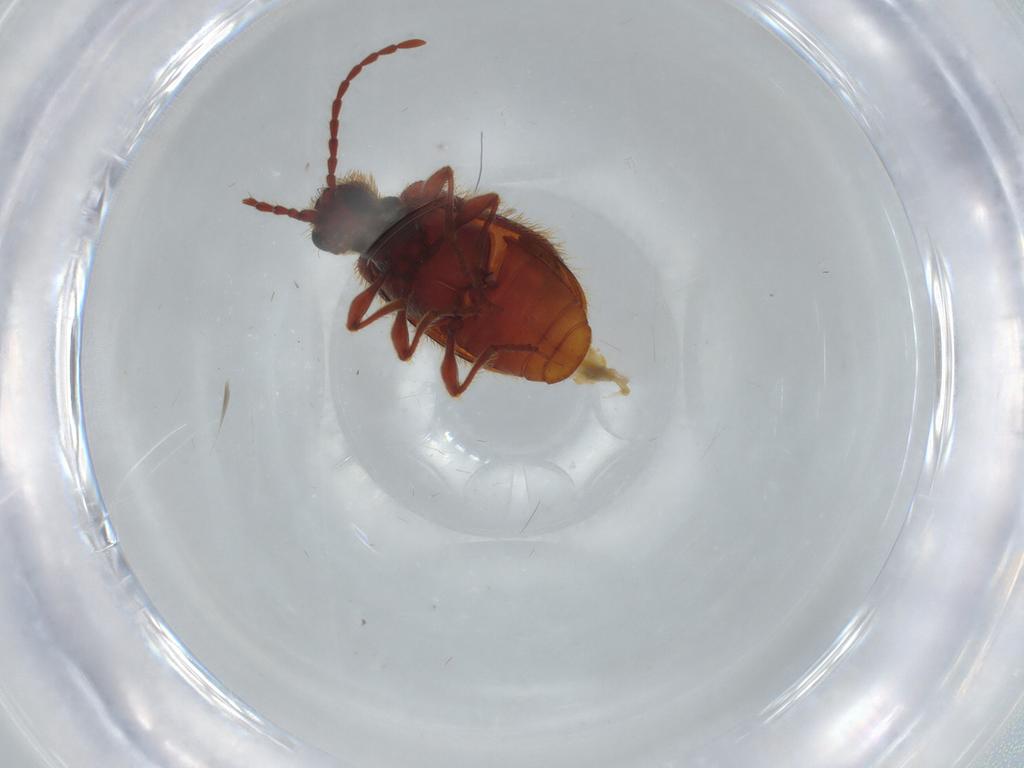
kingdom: Animalia
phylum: Arthropoda
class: Insecta
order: Coleoptera
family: Ptinidae
